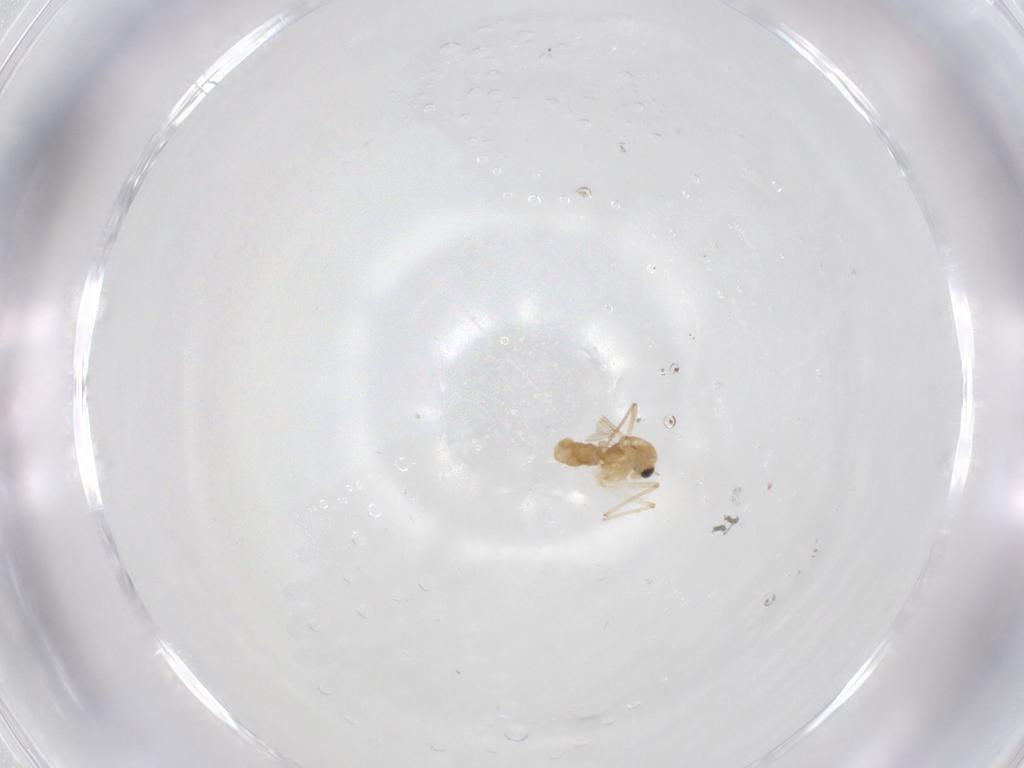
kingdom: Animalia
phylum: Arthropoda
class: Insecta
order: Diptera
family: Chironomidae
